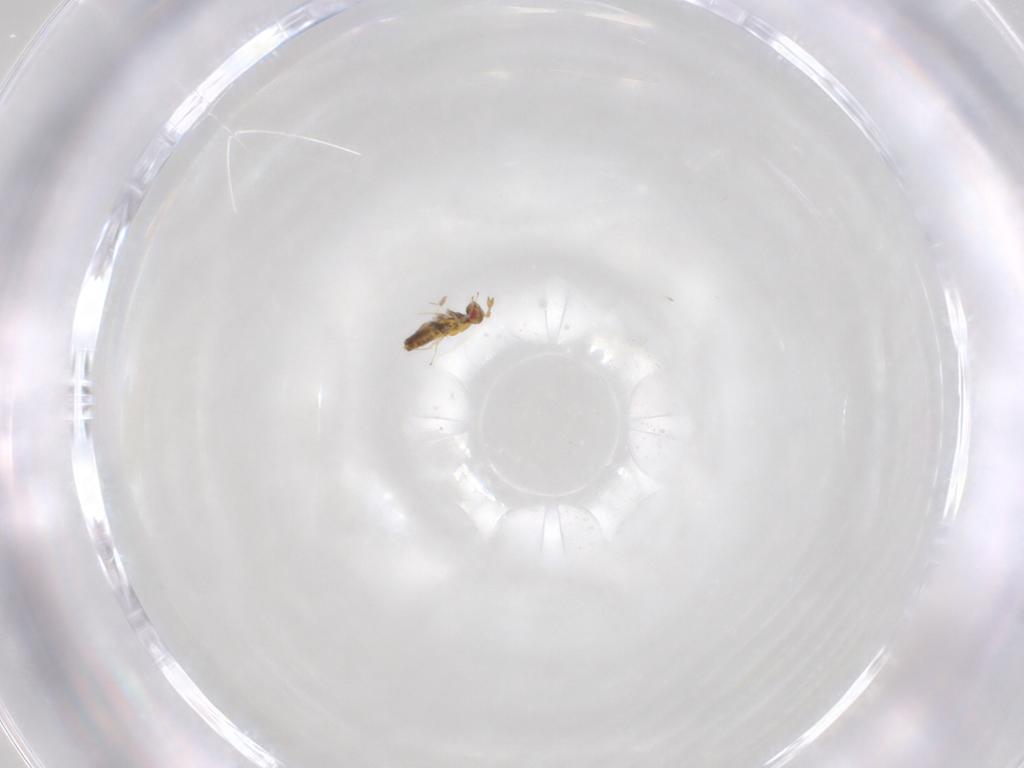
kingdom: Animalia
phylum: Arthropoda
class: Insecta
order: Hymenoptera
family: Trichogrammatidae
